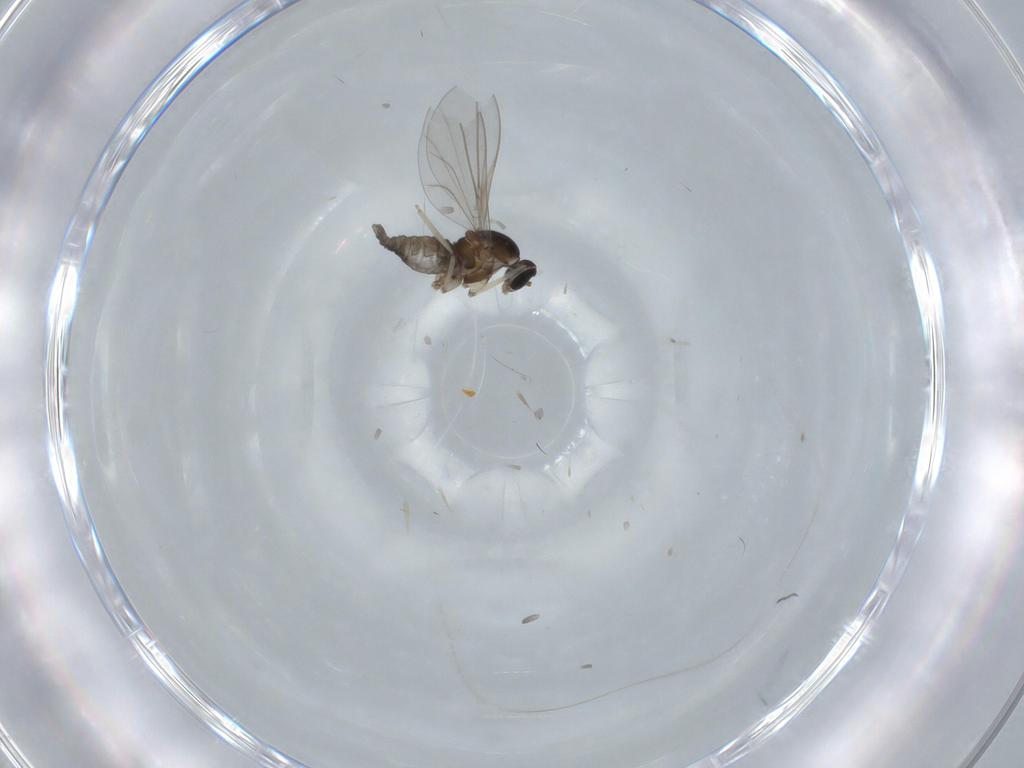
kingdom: Animalia
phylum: Arthropoda
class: Insecta
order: Diptera
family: Cecidomyiidae
